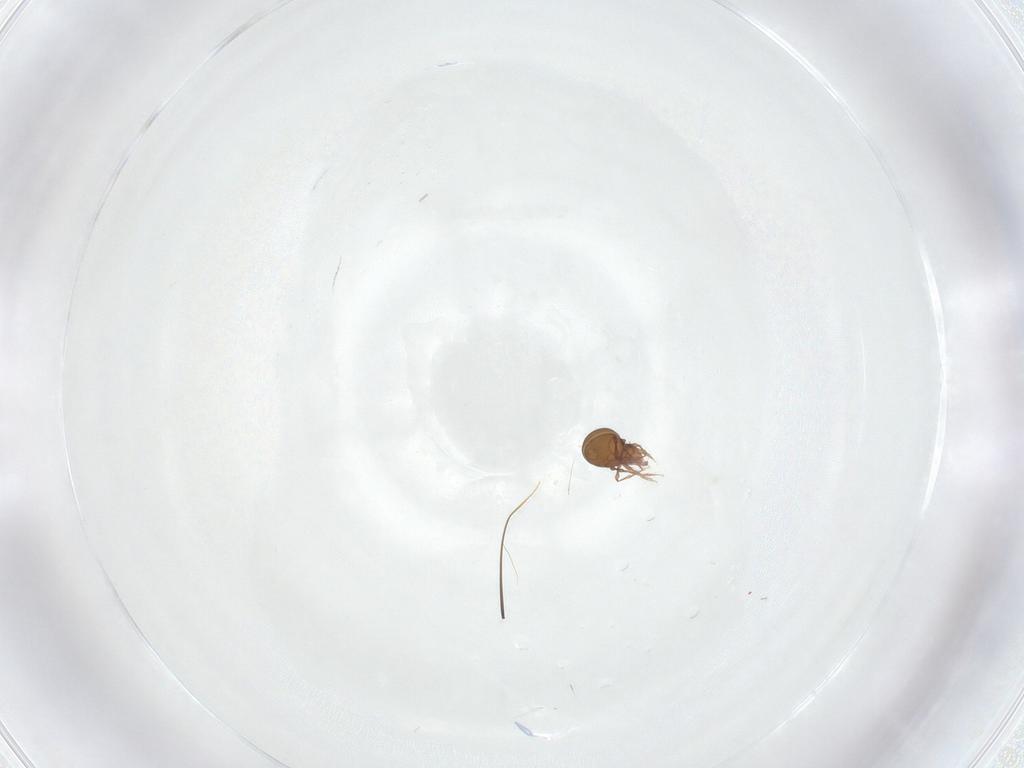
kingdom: Animalia
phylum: Arthropoda
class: Arachnida
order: Sarcoptiformes
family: Oppiidae
